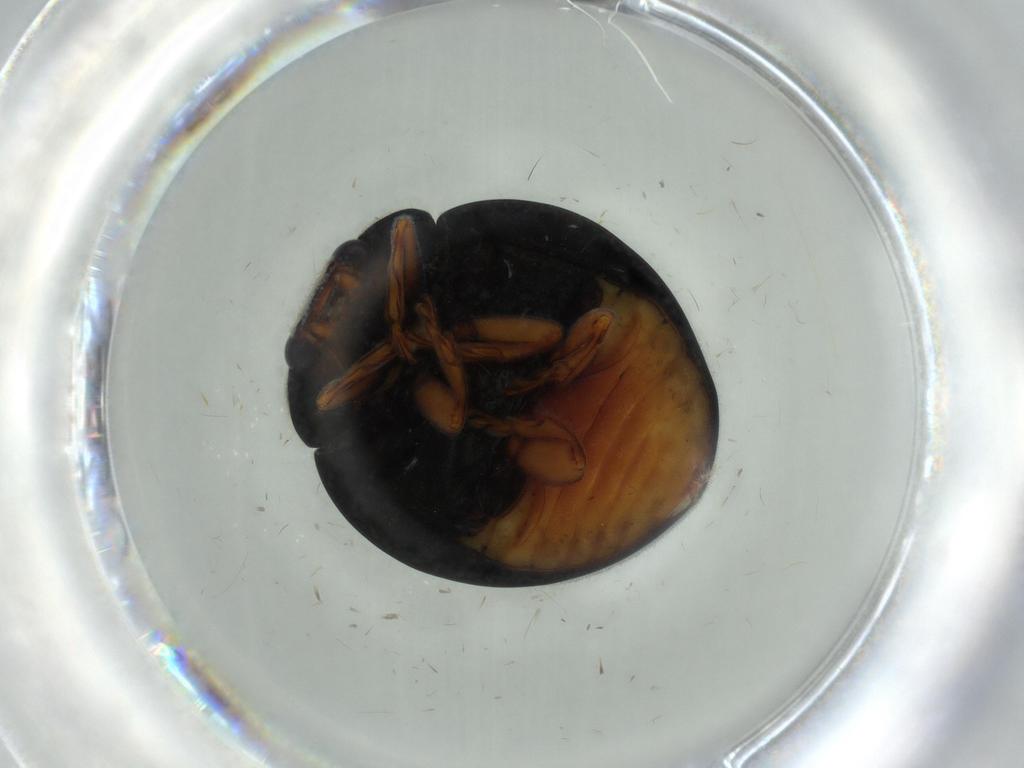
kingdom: Animalia
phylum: Arthropoda
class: Insecta
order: Coleoptera
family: Coccinellidae
